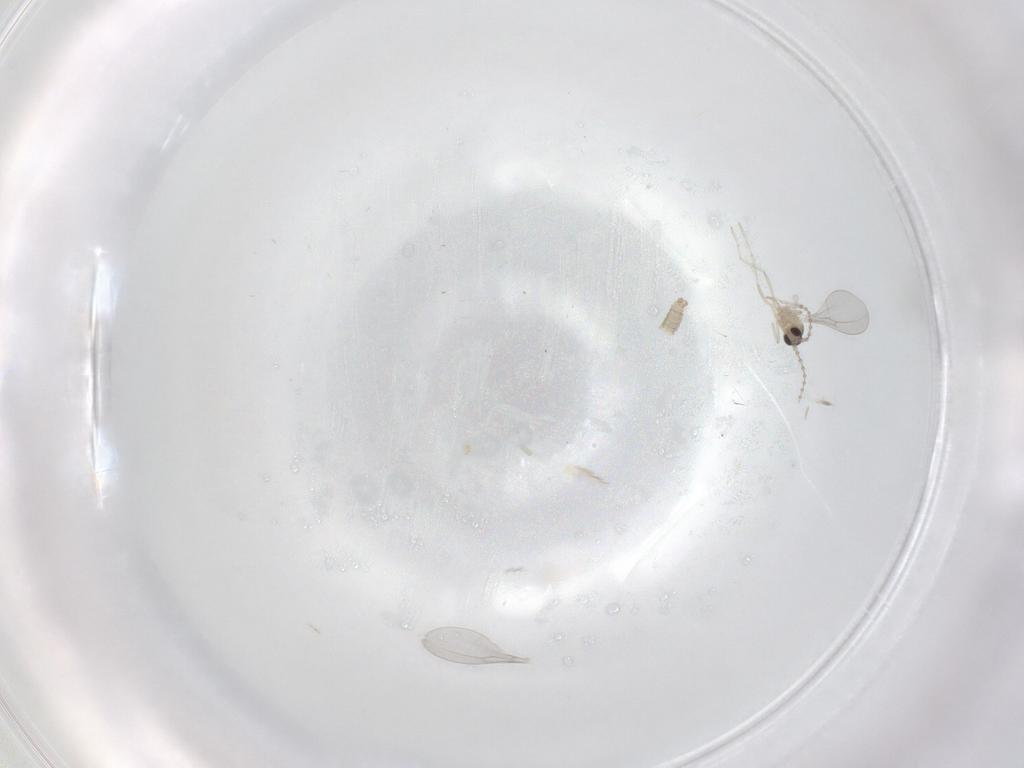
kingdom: Animalia
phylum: Arthropoda
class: Insecta
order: Diptera
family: Cecidomyiidae
